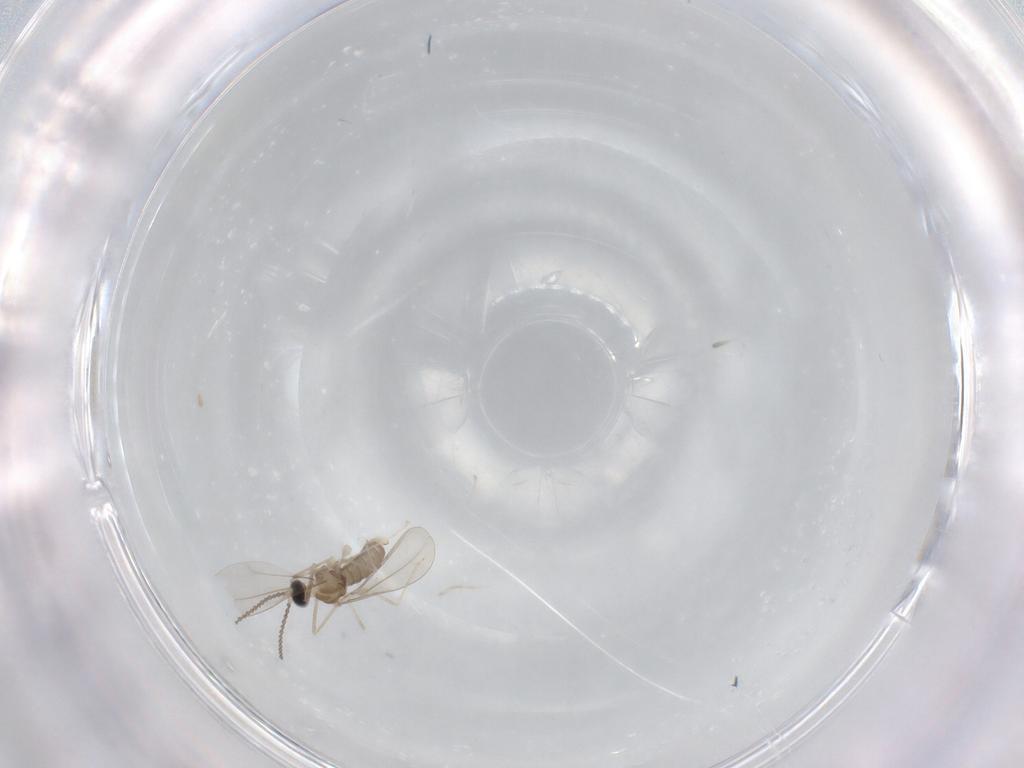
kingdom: Animalia
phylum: Arthropoda
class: Insecta
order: Diptera
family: Cecidomyiidae
